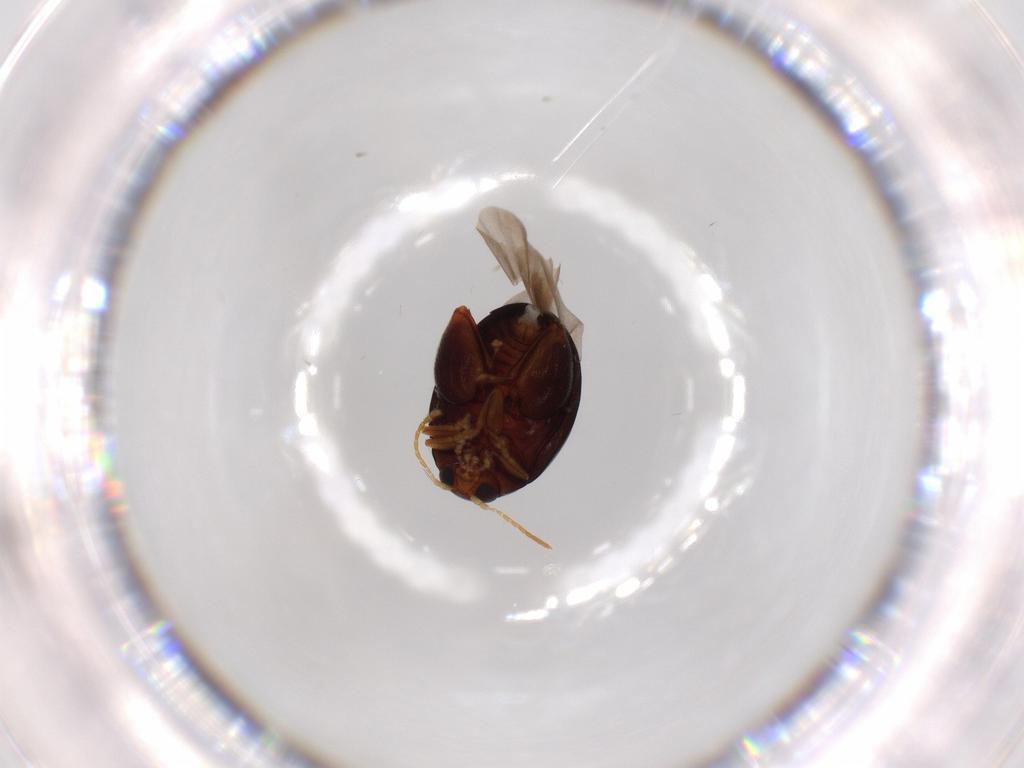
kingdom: Animalia
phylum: Arthropoda
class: Insecta
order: Coleoptera
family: Chrysomelidae
